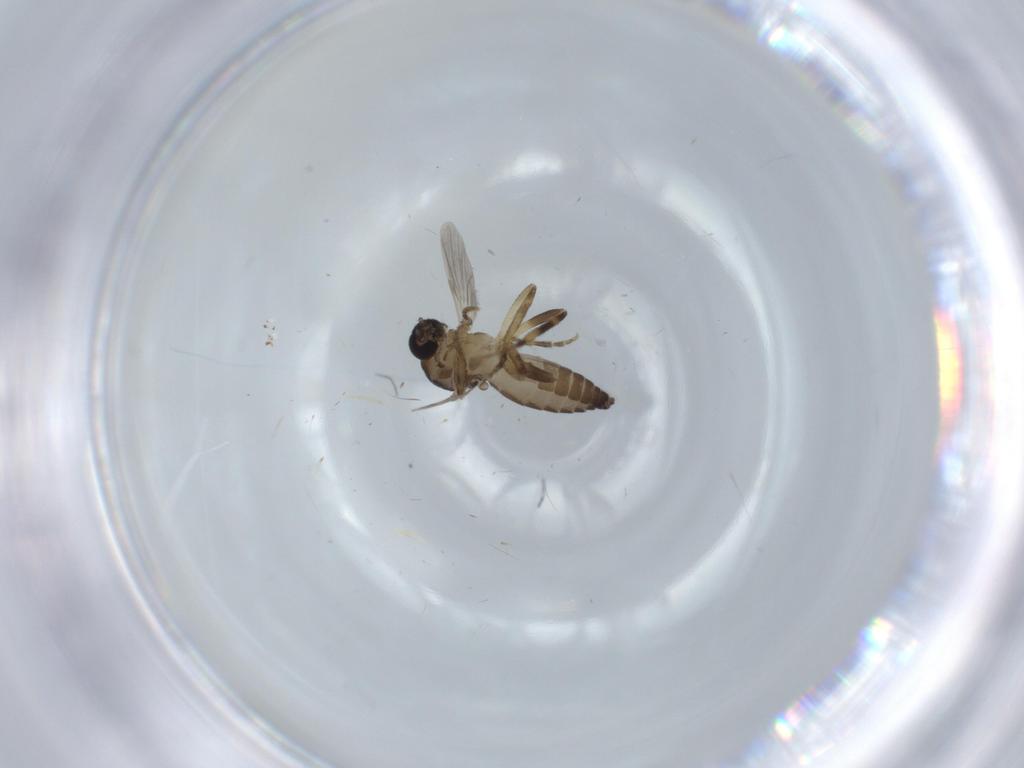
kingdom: Animalia
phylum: Arthropoda
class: Insecta
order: Diptera
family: Ceratopogonidae
